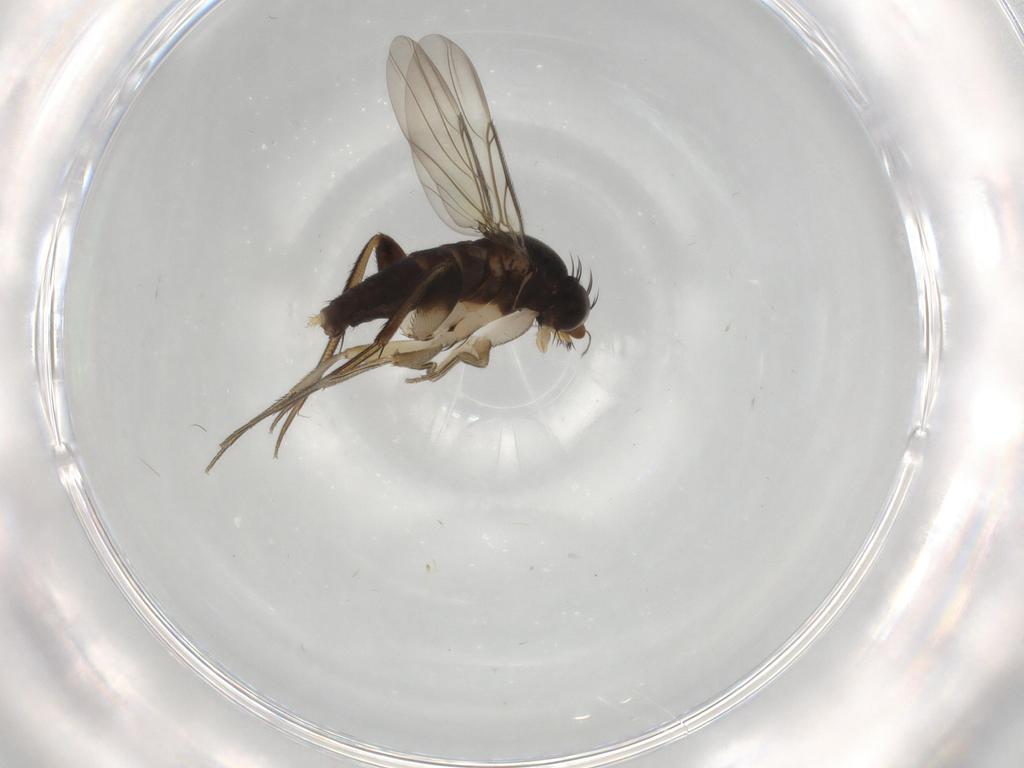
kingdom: Animalia
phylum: Arthropoda
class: Insecta
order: Diptera
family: Phoridae
